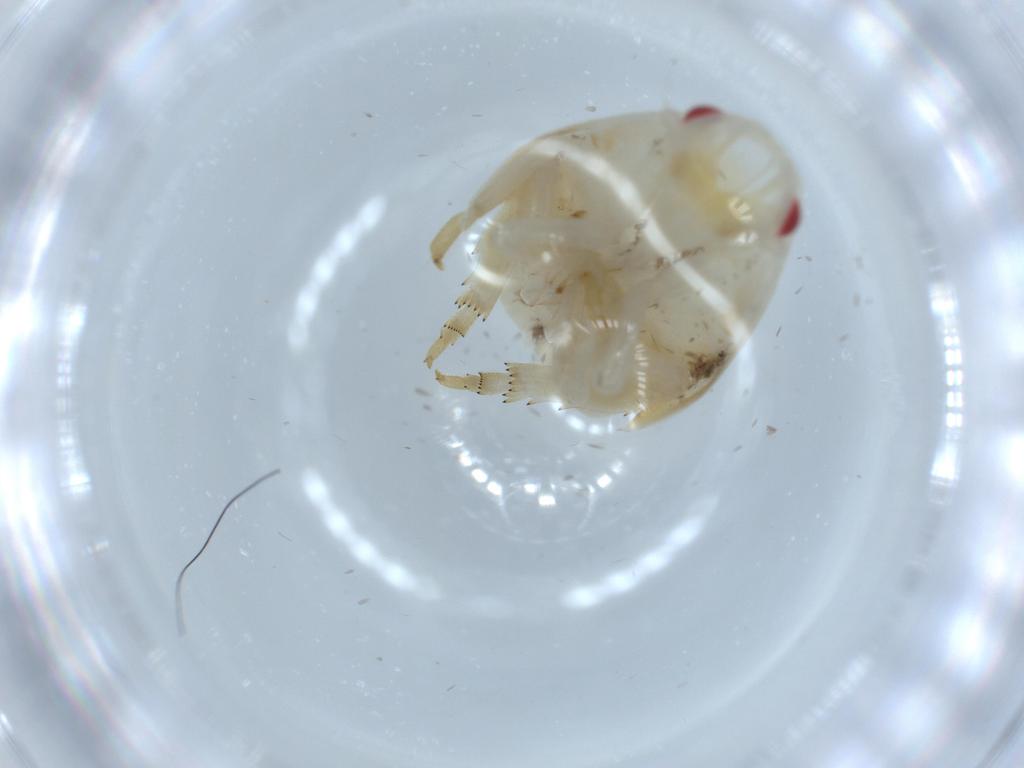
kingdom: Animalia
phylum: Arthropoda
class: Insecta
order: Hemiptera
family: Flatidae
